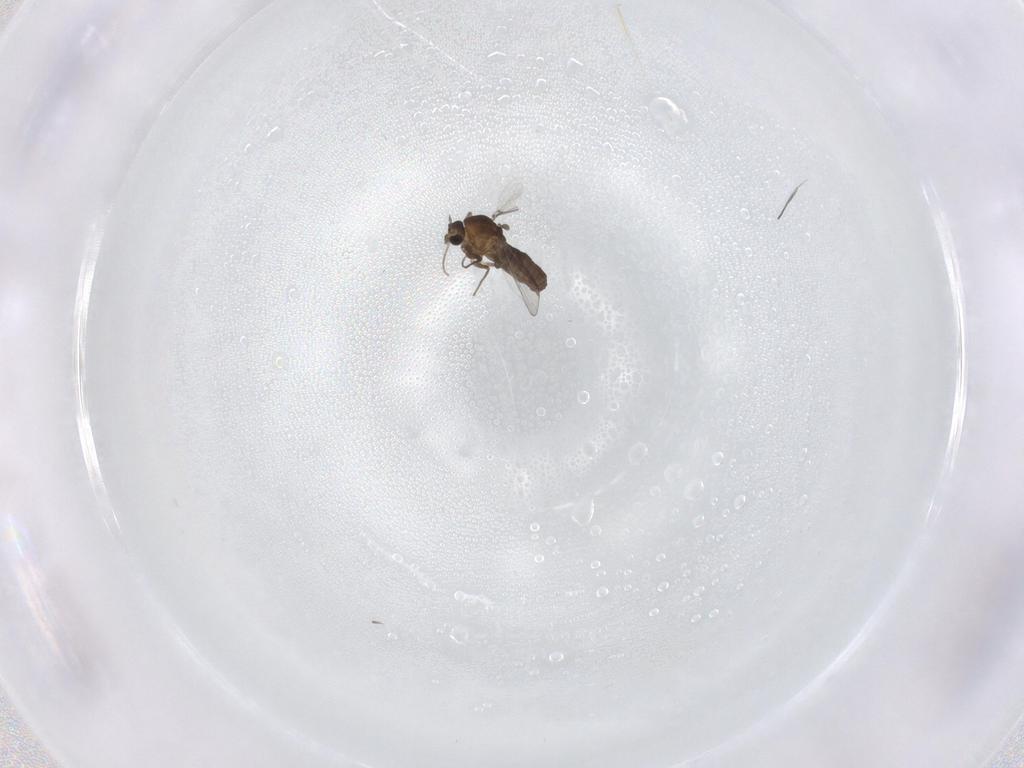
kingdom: Animalia
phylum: Arthropoda
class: Insecta
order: Diptera
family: Chironomidae
